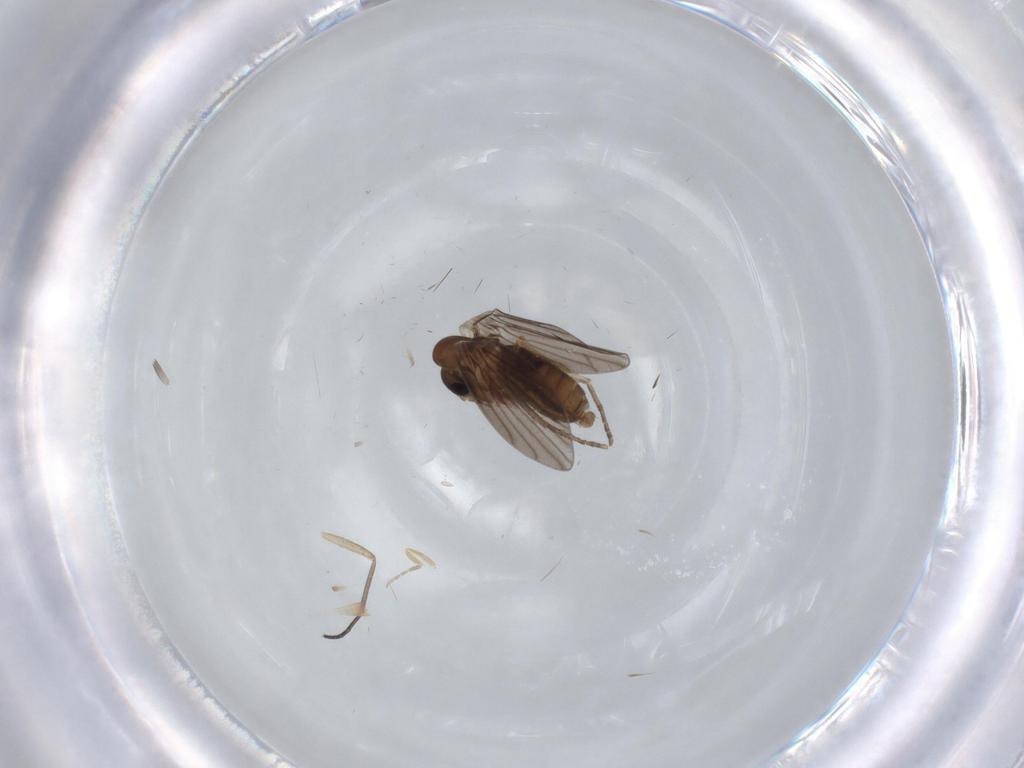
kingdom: Animalia
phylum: Arthropoda
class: Insecta
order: Diptera
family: Sciaridae
